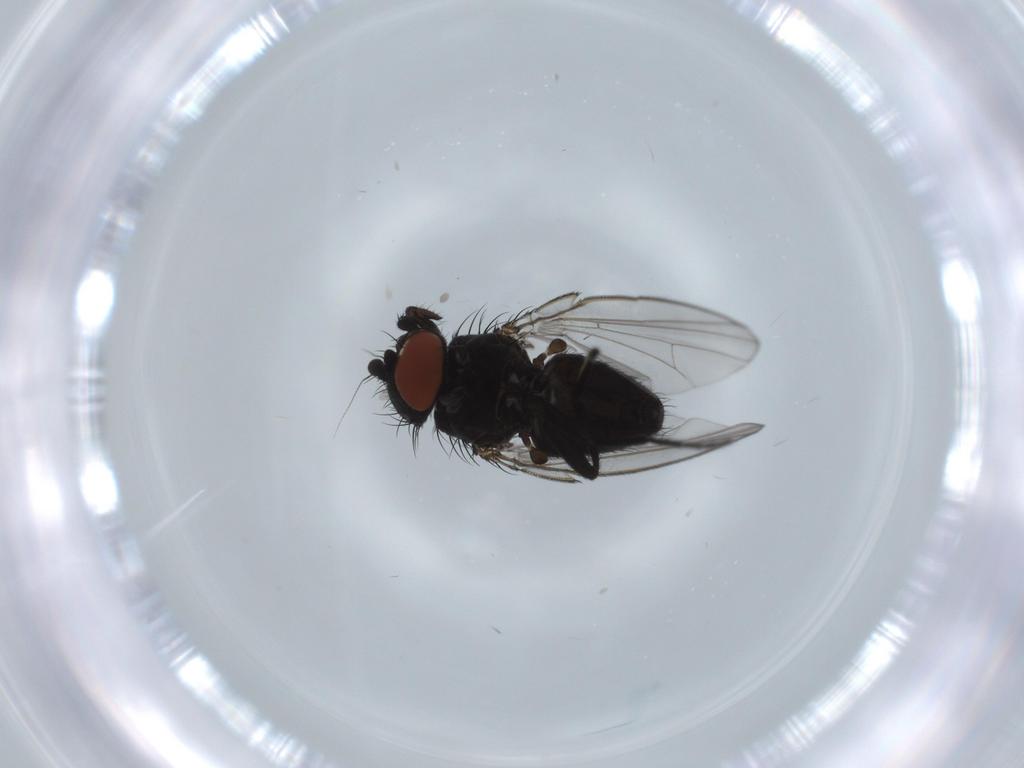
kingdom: Animalia
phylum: Arthropoda
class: Insecta
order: Diptera
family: Milichiidae
